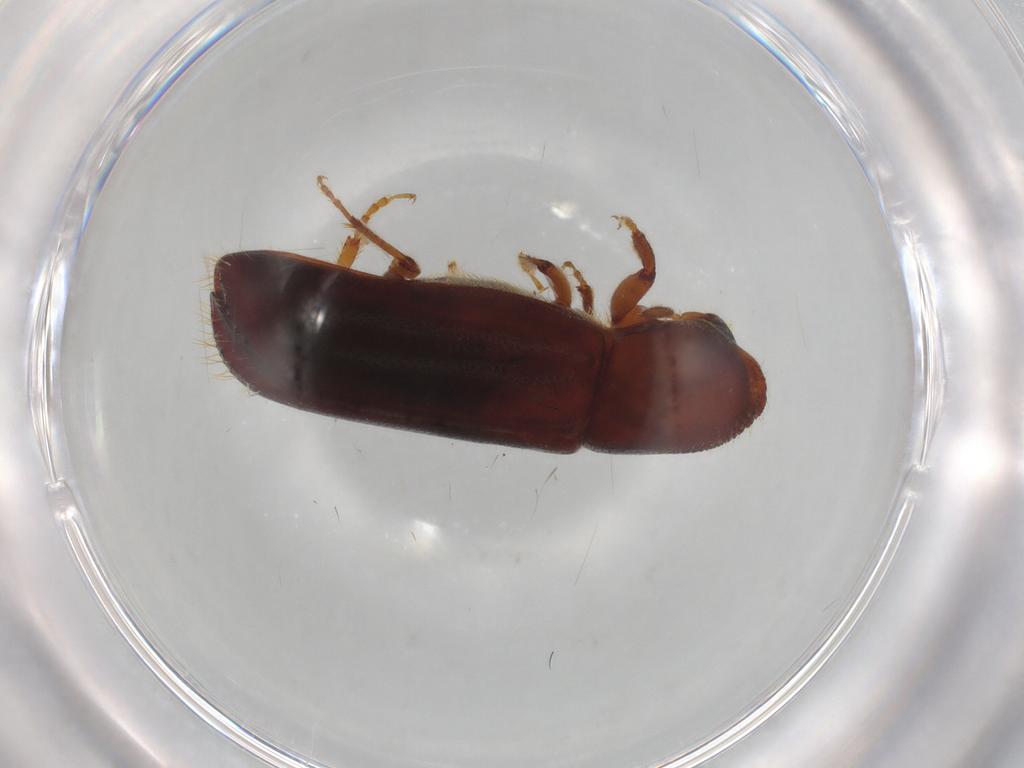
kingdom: Animalia
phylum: Arthropoda
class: Insecta
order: Coleoptera
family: Curculionidae
